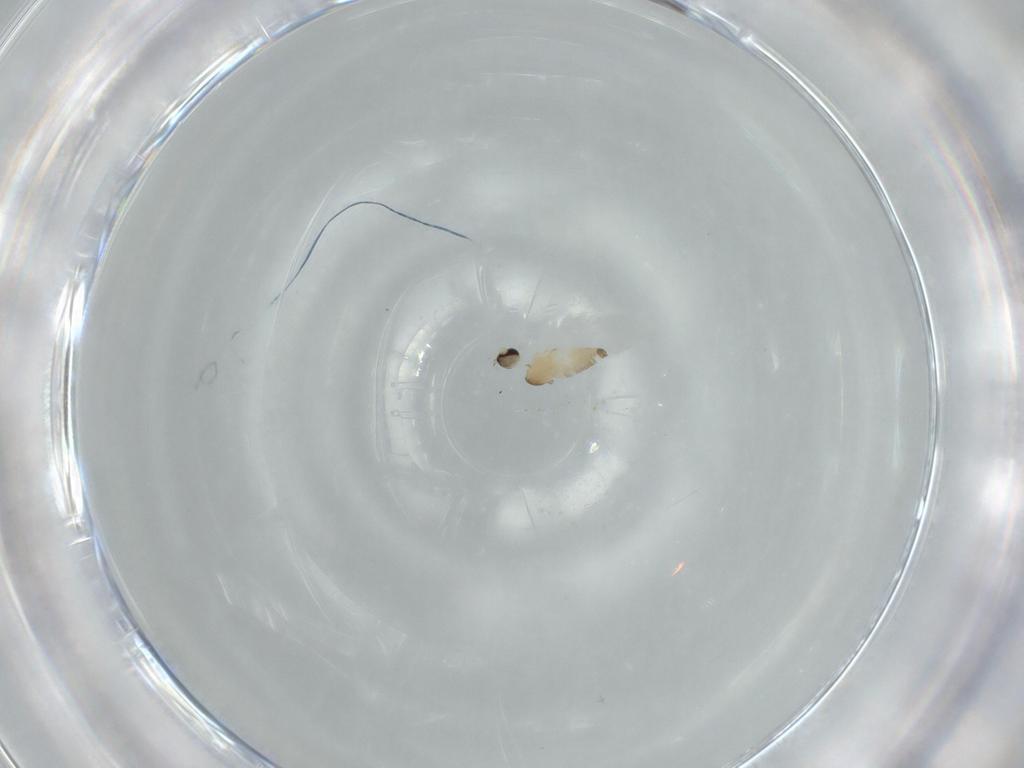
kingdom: Animalia
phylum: Arthropoda
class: Insecta
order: Diptera
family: Cecidomyiidae
